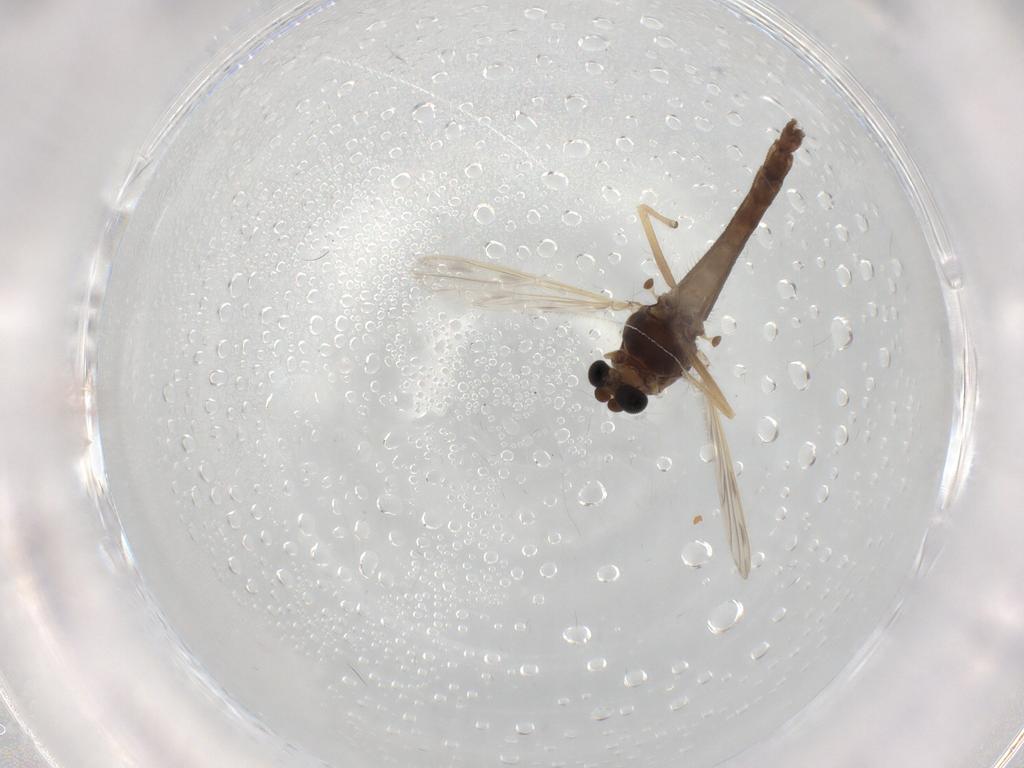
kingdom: Animalia
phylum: Arthropoda
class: Insecta
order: Diptera
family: Chironomidae
